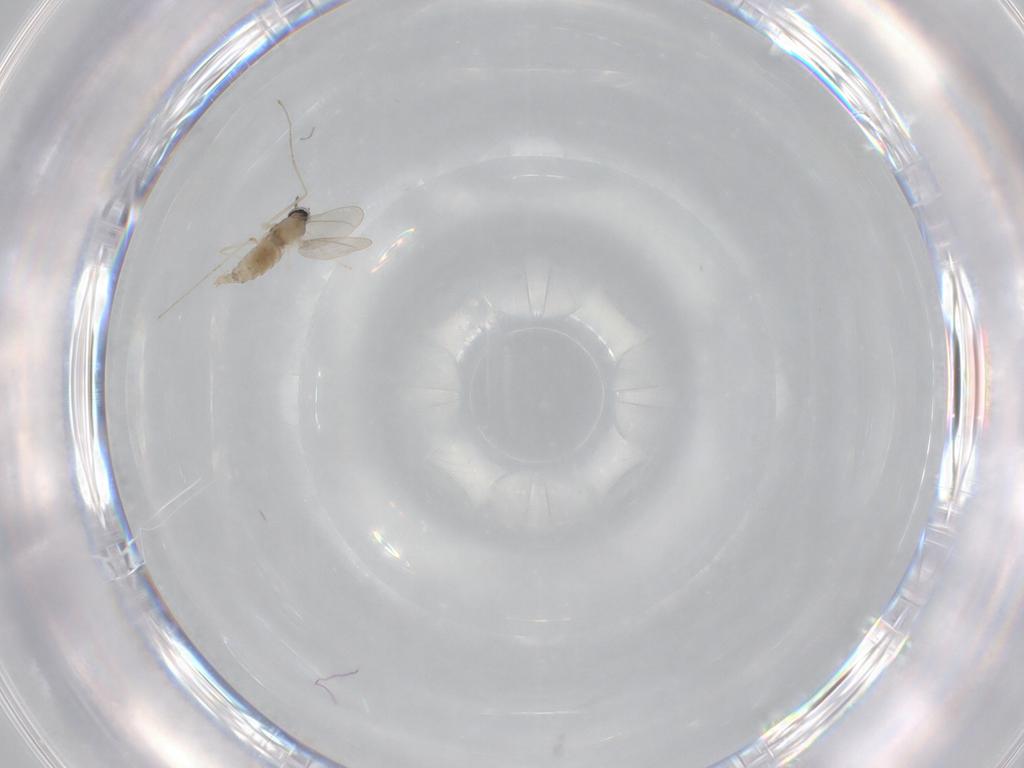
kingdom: Animalia
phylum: Arthropoda
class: Insecta
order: Diptera
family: Cecidomyiidae
